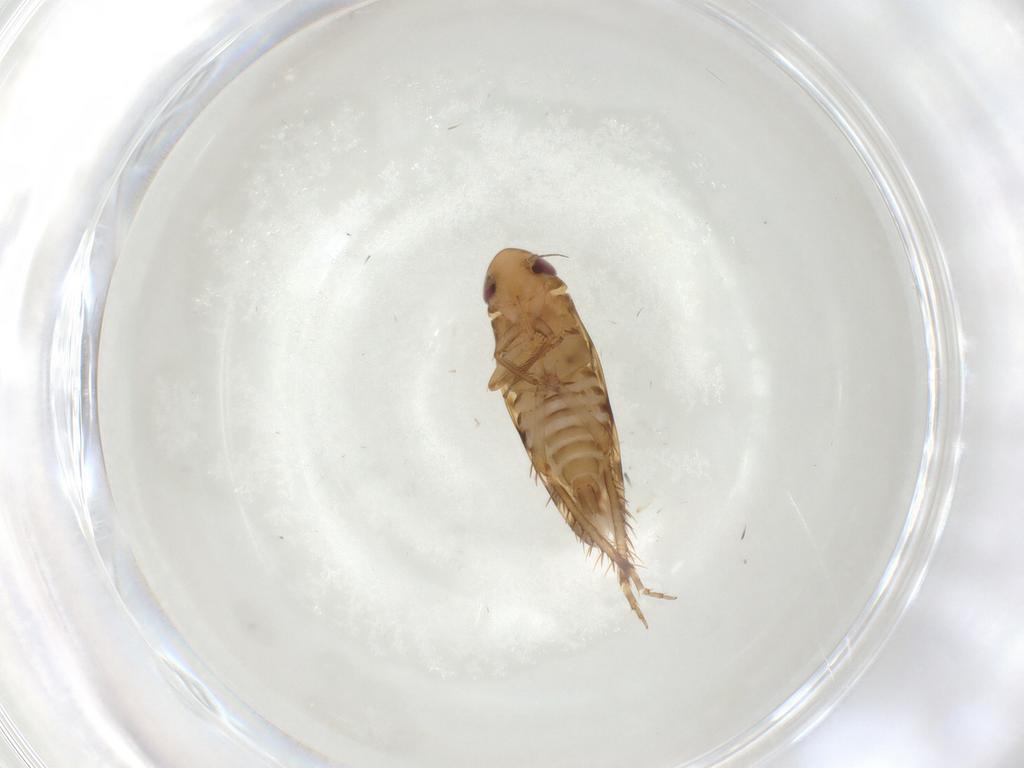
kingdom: Animalia
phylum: Arthropoda
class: Insecta
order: Hemiptera
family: Cicadellidae
